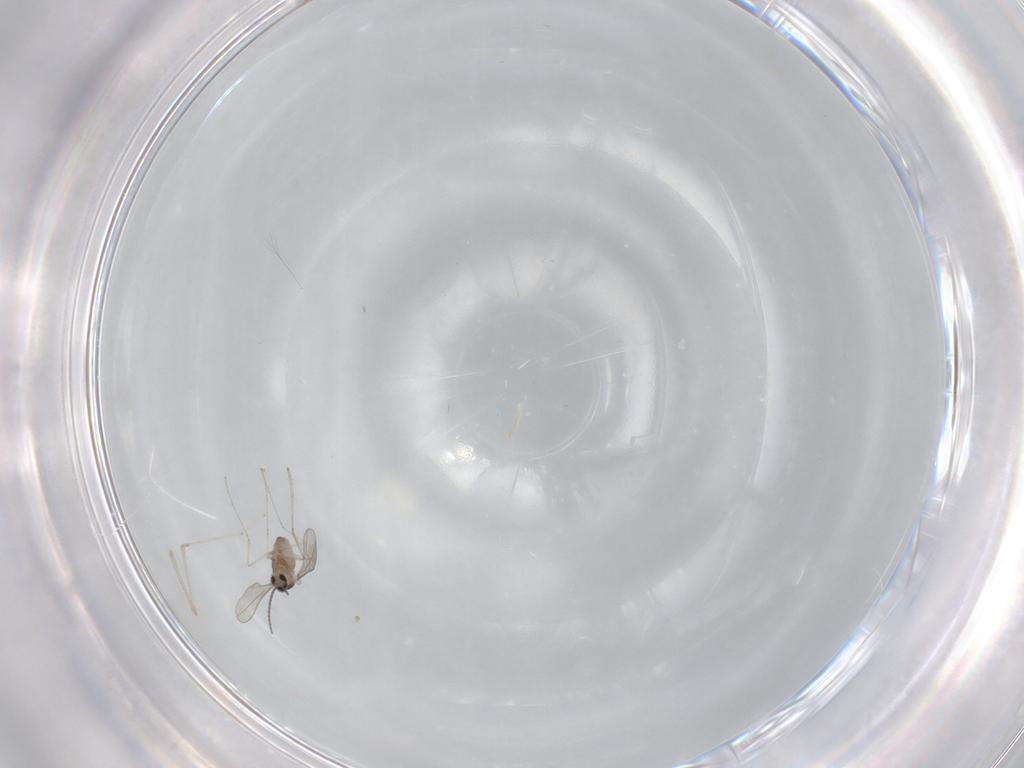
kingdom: Animalia
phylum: Arthropoda
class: Insecta
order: Diptera
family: Cecidomyiidae
